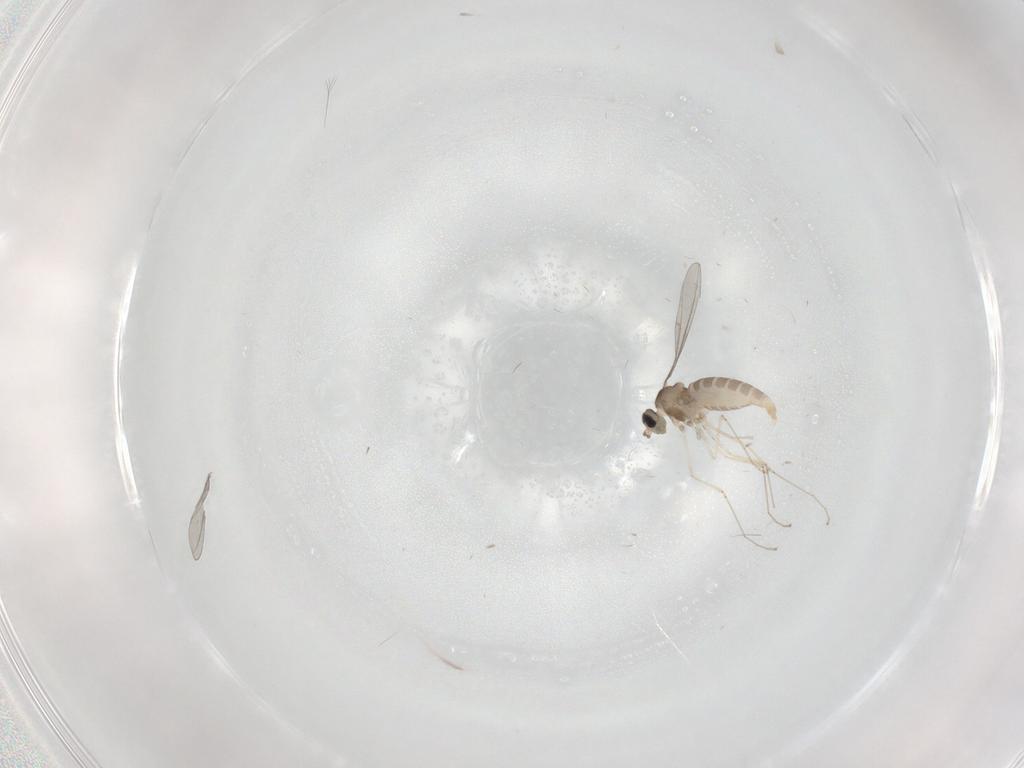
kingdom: Animalia
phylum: Arthropoda
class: Insecta
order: Diptera
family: Cecidomyiidae
